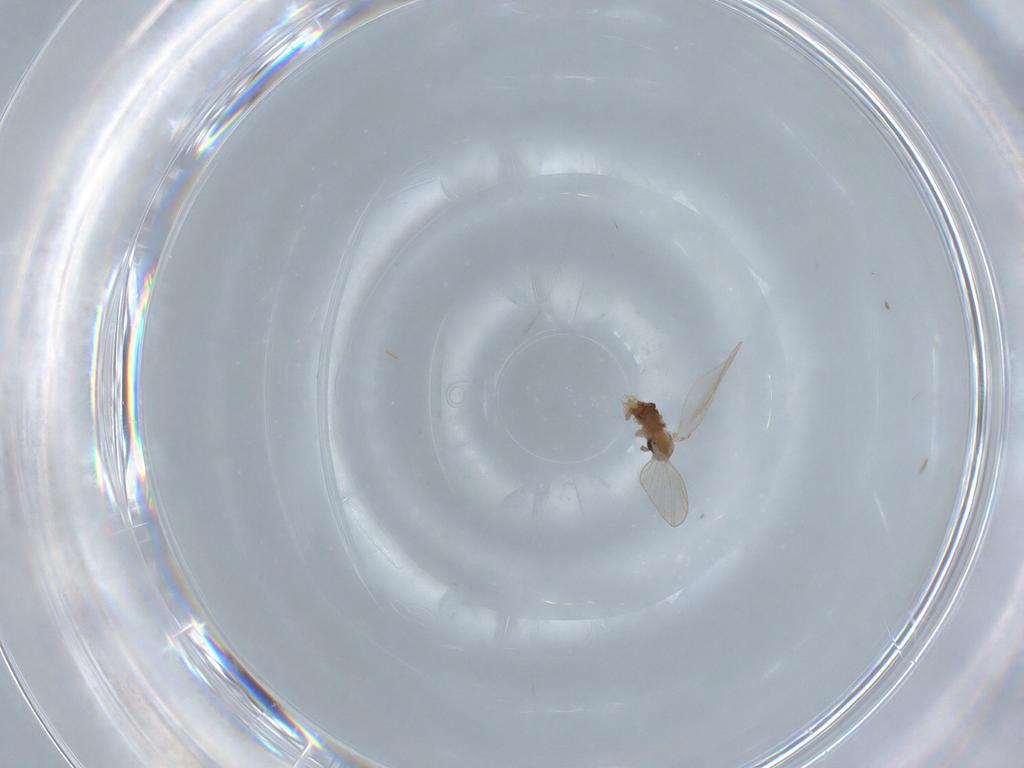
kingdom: Animalia
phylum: Arthropoda
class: Insecta
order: Diptera
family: Psychodidae
